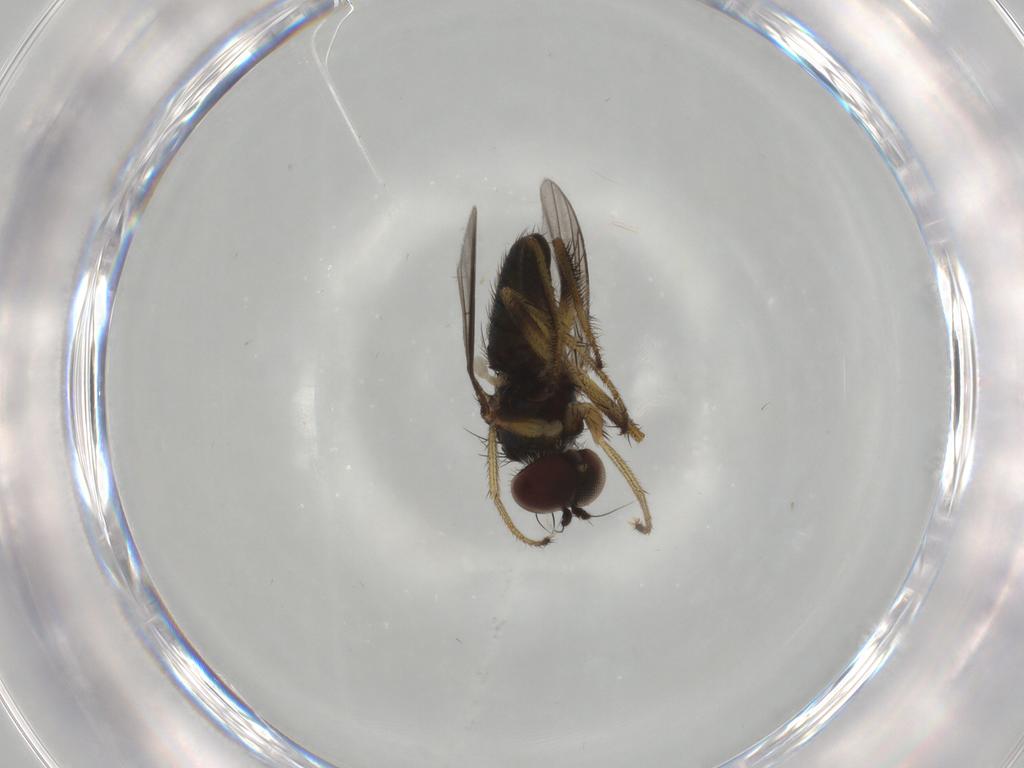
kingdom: Animalia
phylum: Arthropoda
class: Insecta
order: Diptera
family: Dolichopodidae
